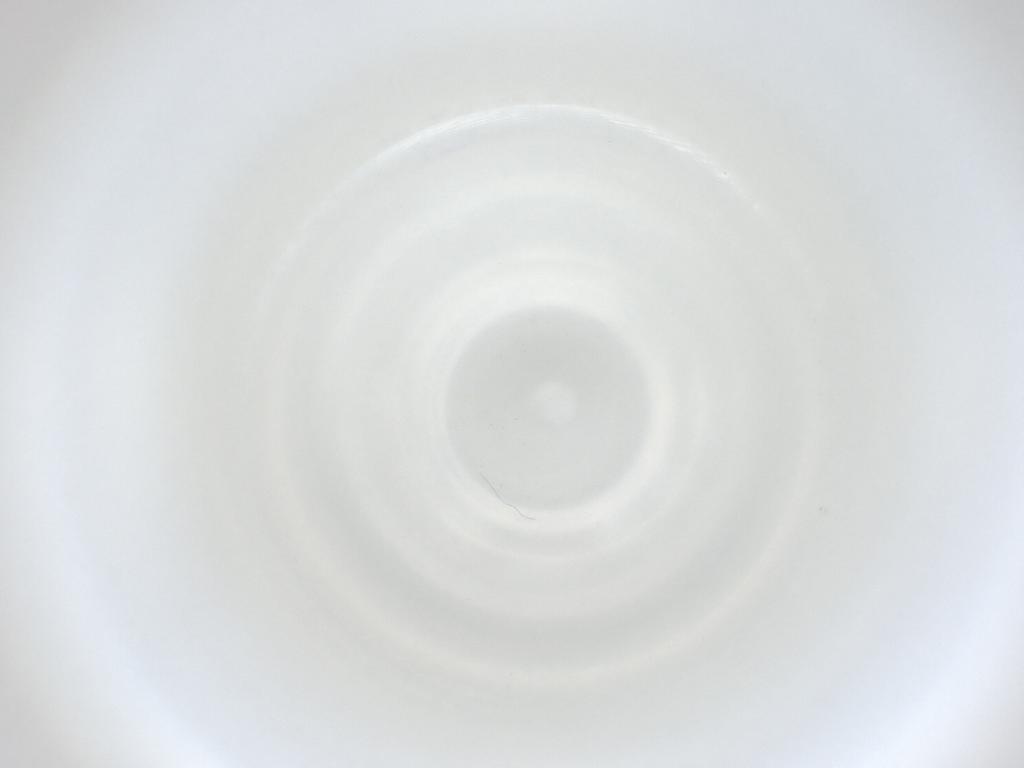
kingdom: Animalia
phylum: Arthropoda
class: Insecta
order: Diptera
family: Cecidomyiidae
